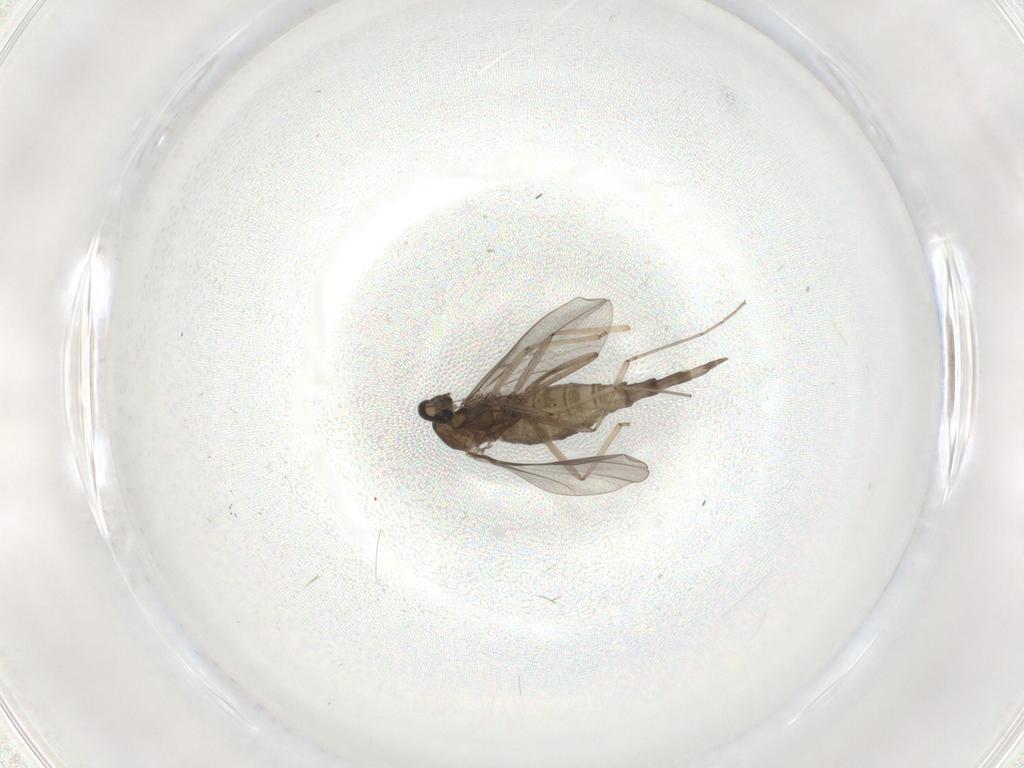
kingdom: Animalia
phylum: Arthropoda
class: Insecta
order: Diptera
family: Cecidomyiidae
